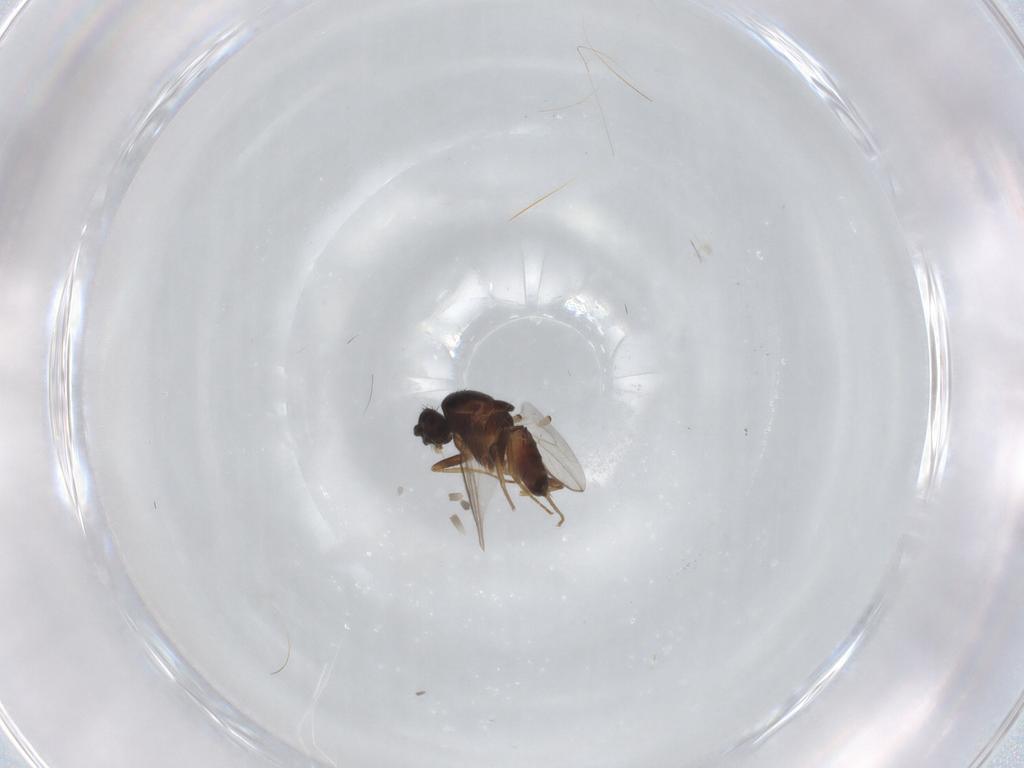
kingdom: Animalia
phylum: Arthropoda
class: Insecta
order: Diptera
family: Sphaeroceridae
